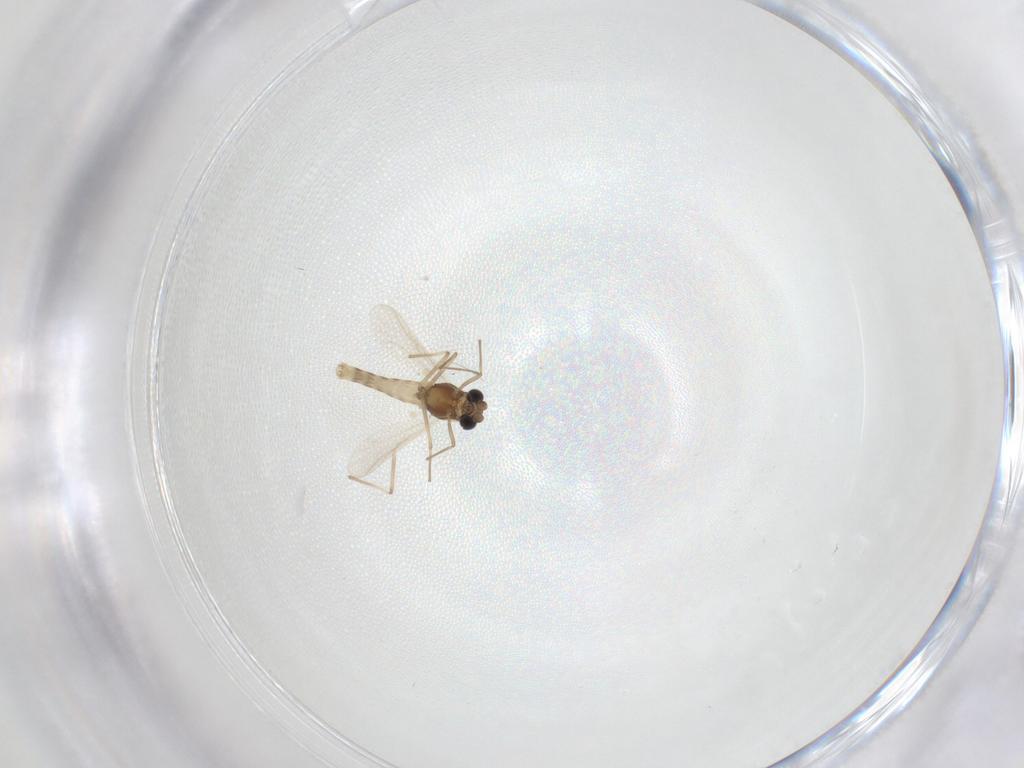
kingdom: Animalia
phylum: Arthropoda
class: Insecta
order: Diptera
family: Chironomidae
